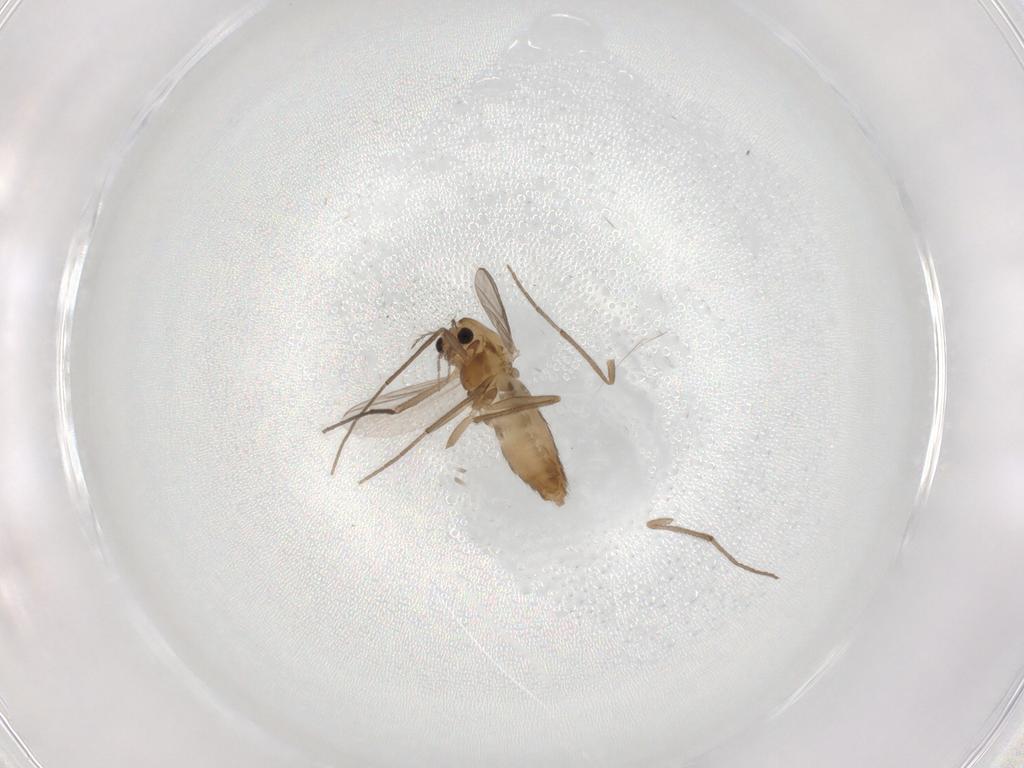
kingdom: Animalia
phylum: Arthropoda
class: Insecta
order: Diptera
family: Chironomidae
